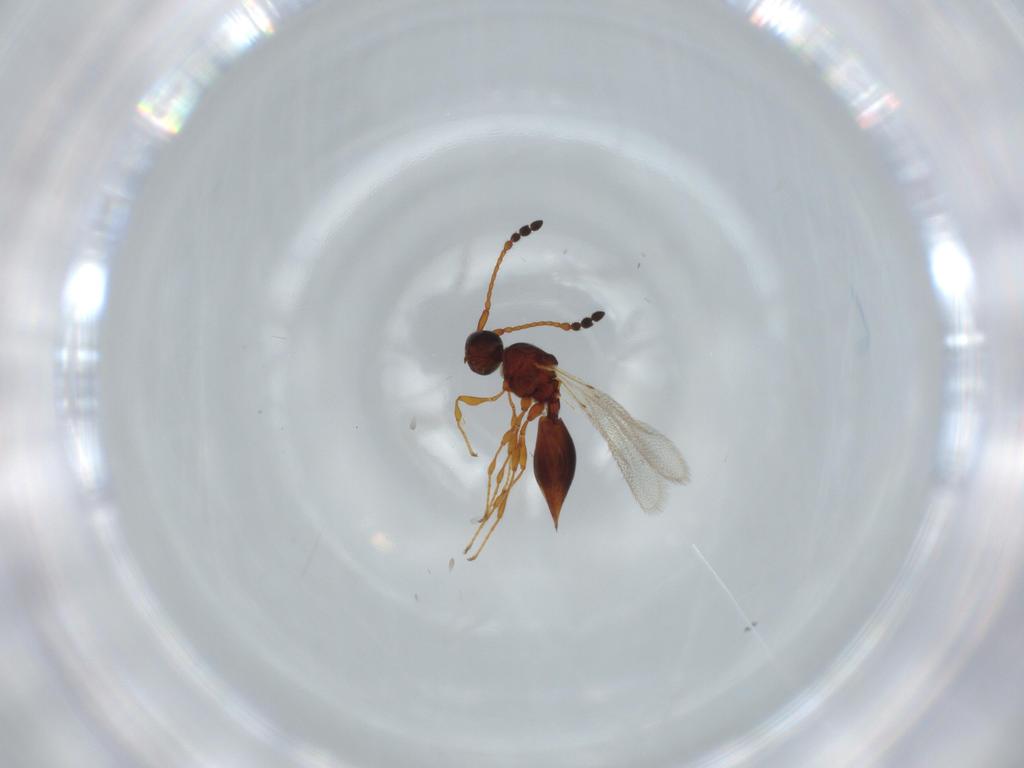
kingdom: Animalia
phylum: Arthropoda
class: Insecta
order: Hymenoptera
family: Diapriidae
